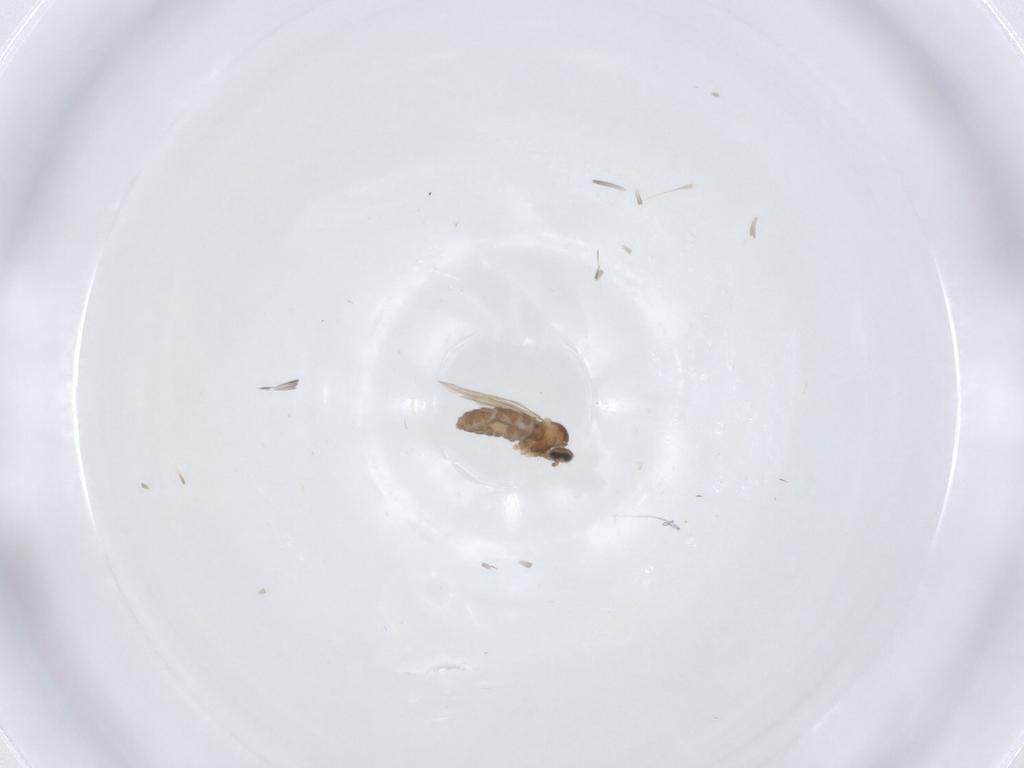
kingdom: Animalia
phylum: Arthropoda
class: Insecta
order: Diptera
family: Cecidomyiidae
